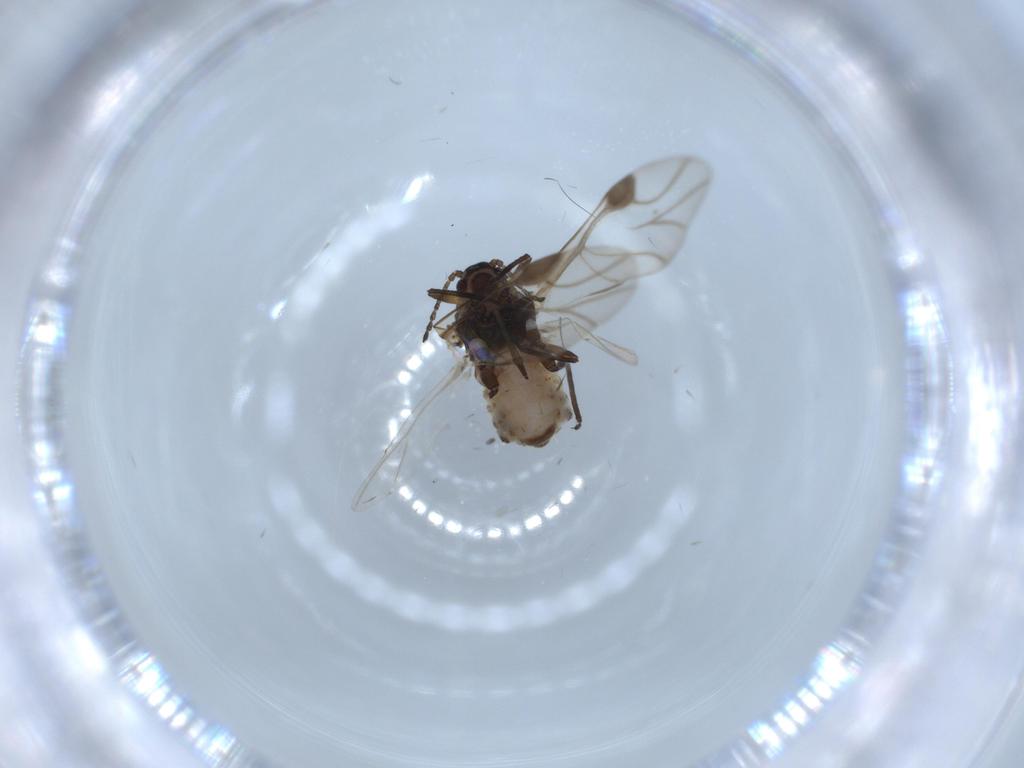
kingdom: Animalia
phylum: Arthropoda
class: Insecta
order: Hemiptera
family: Aphididae
